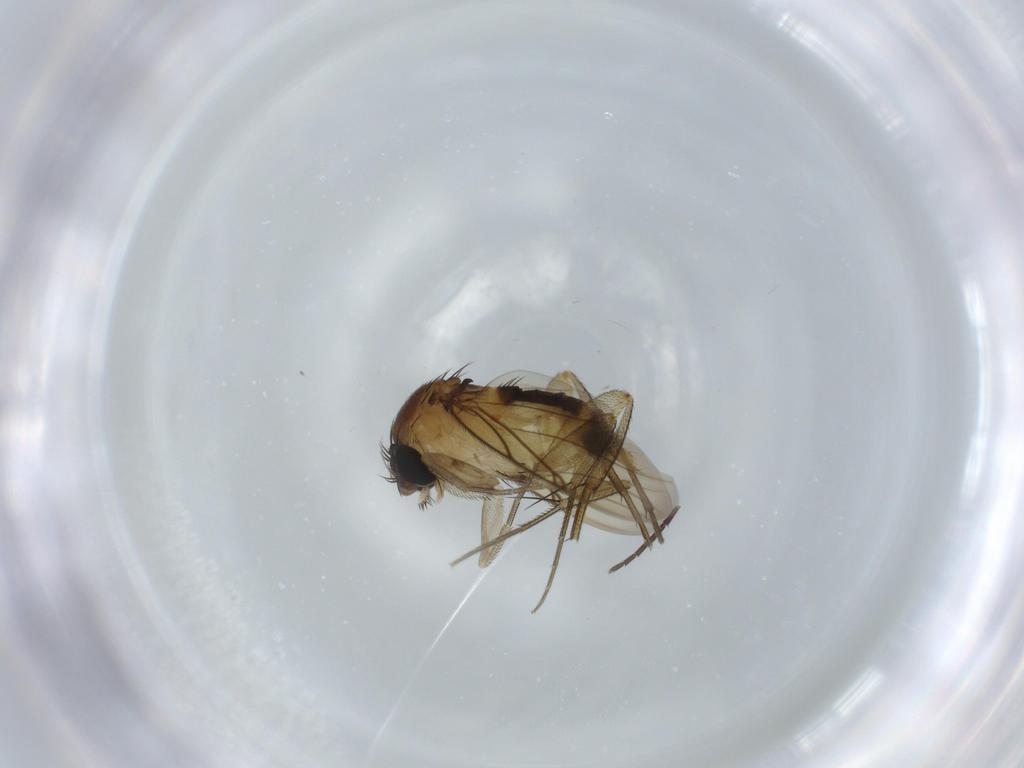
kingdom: Animalia
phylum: Arthropoda
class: Insecta
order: Diptera
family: Sciaridae
